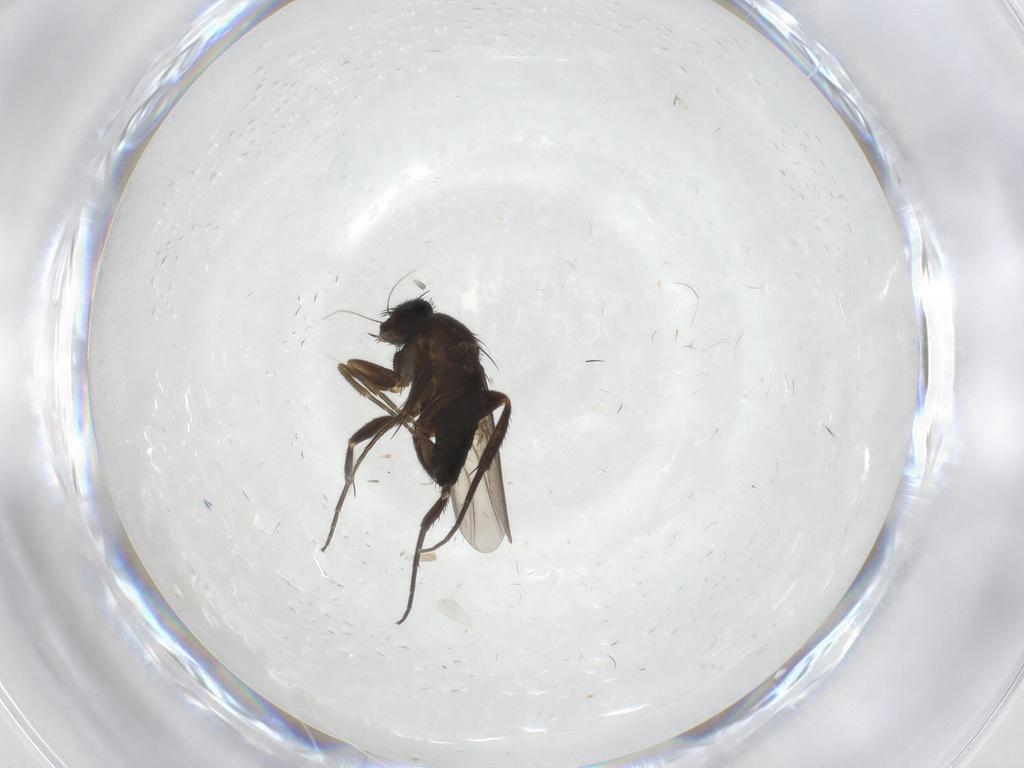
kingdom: Animalia
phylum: Arthropoda
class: Insecta
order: Diptera
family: Phoridae
